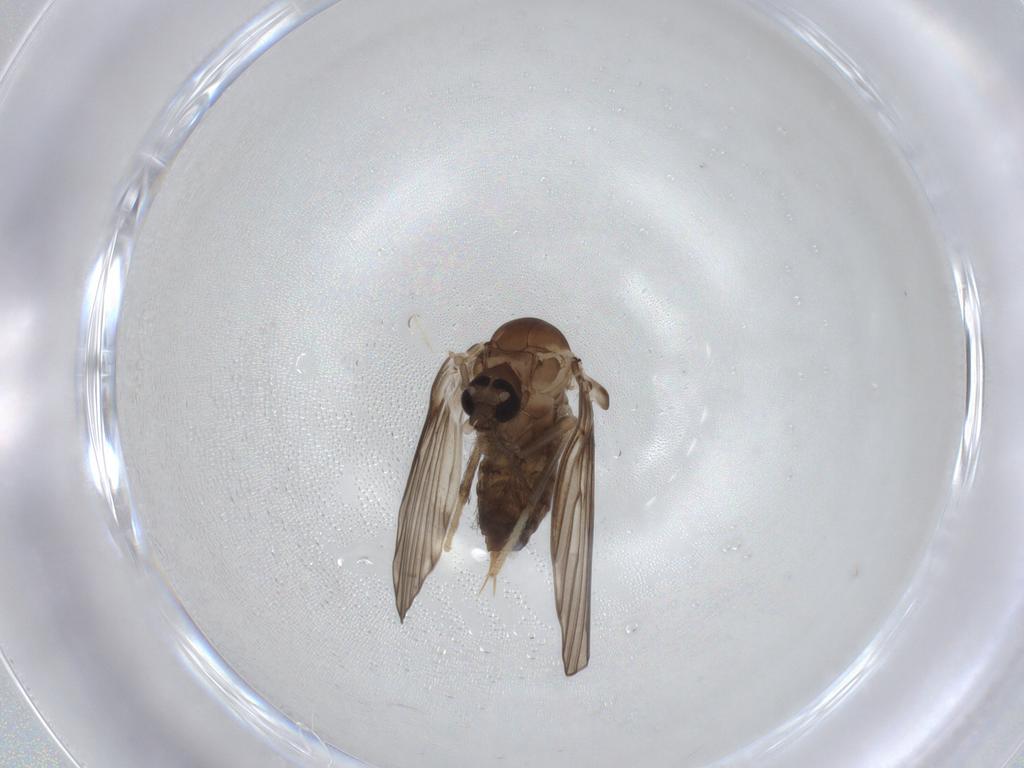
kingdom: Animalia
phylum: Arthropoda
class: Insecta
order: Diptera
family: Psychodidae
